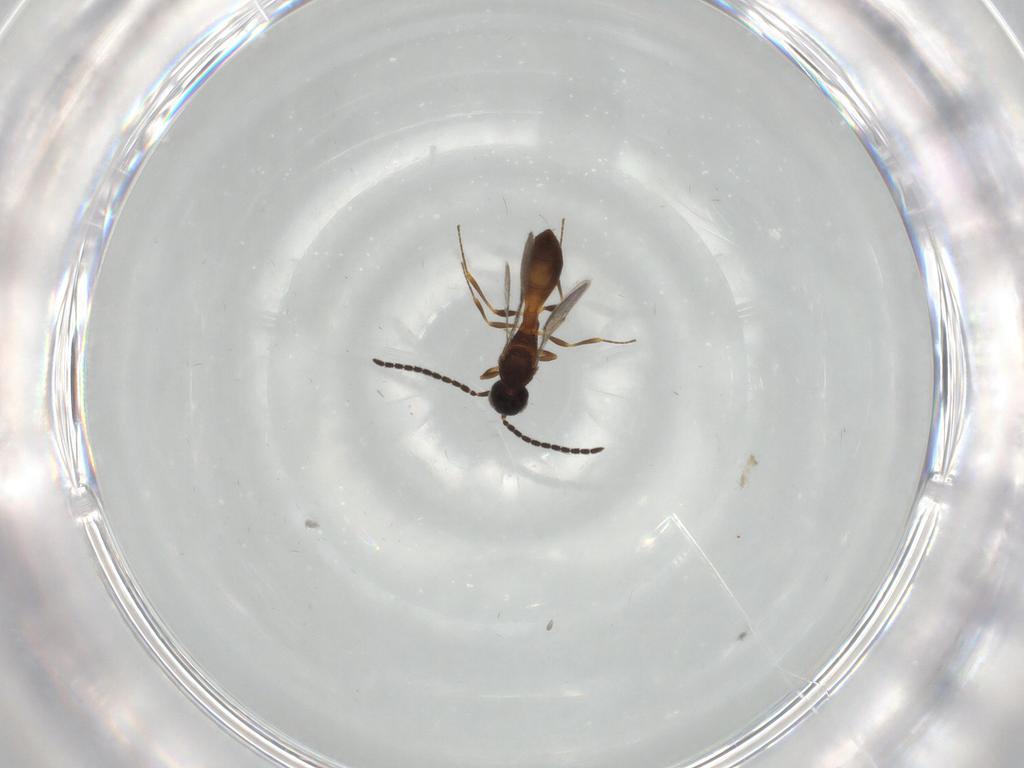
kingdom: Animalia
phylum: Arthropoda
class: Insecta
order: Hymenoptera
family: Scelionidae
